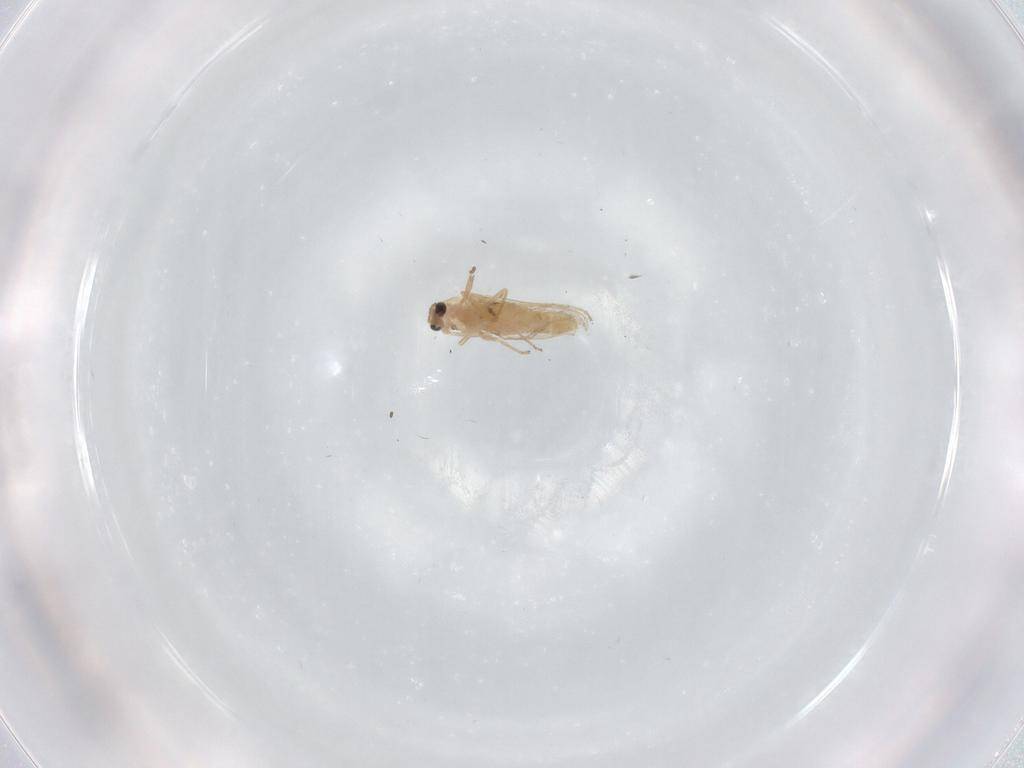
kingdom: Animalia
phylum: Arthropoda
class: Insecta
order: Diptera
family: Chironomidae
